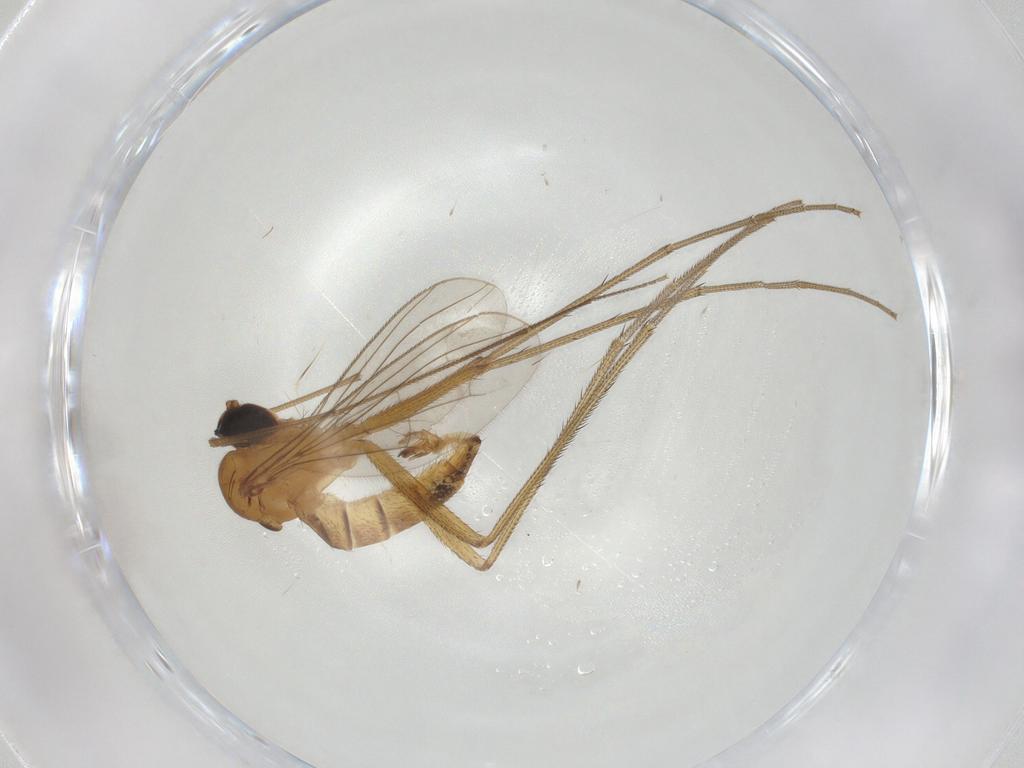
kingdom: Animalia
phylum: Arthropoda
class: Insecta
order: Diptera
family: Dolichopodidae
